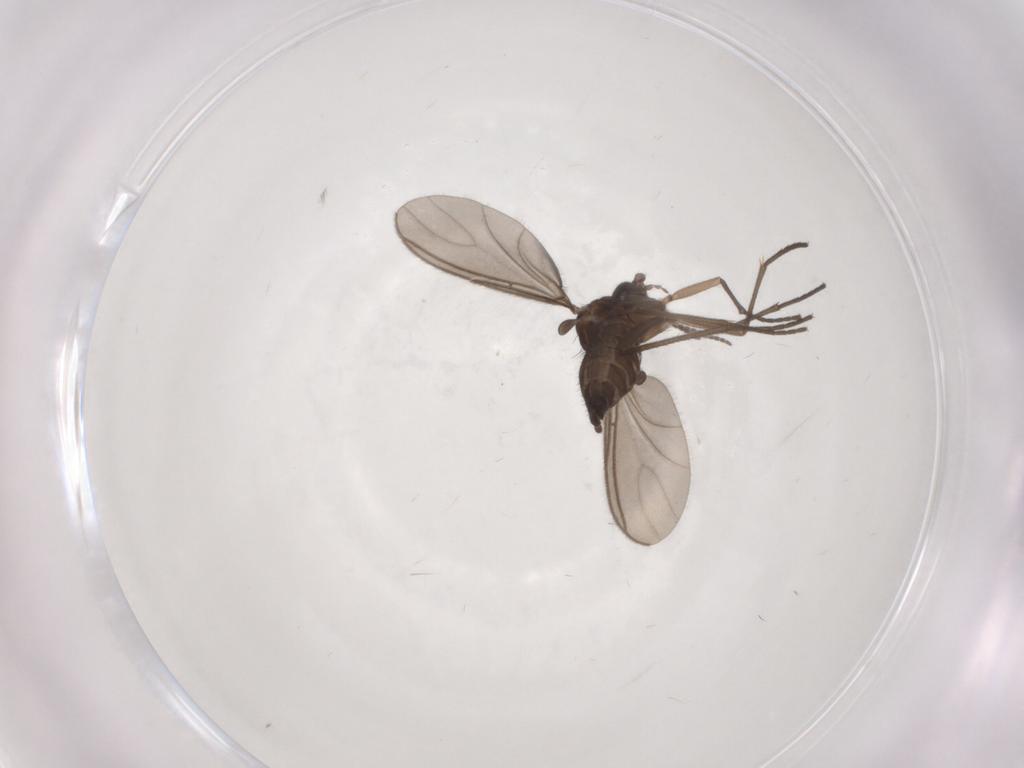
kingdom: Animalia
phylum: Arthropoda
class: Insecta
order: Diptera
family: Sciaridae
